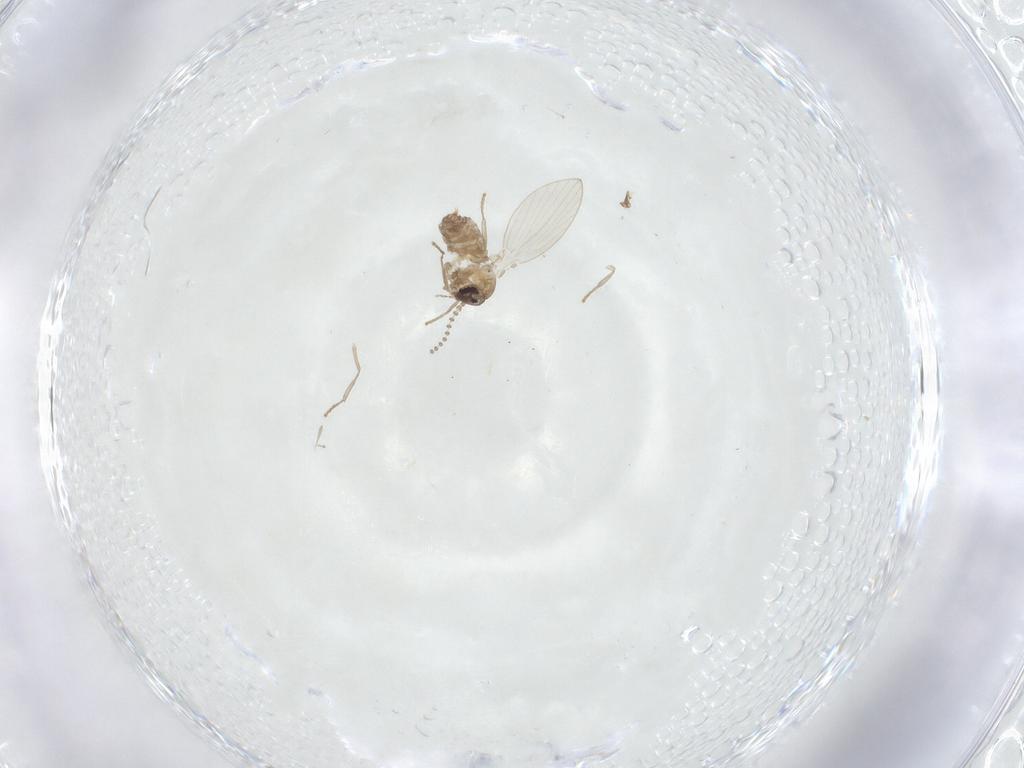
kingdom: Animalia
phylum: Arthropoda
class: Insecta
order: Diptera
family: Psychodidae
